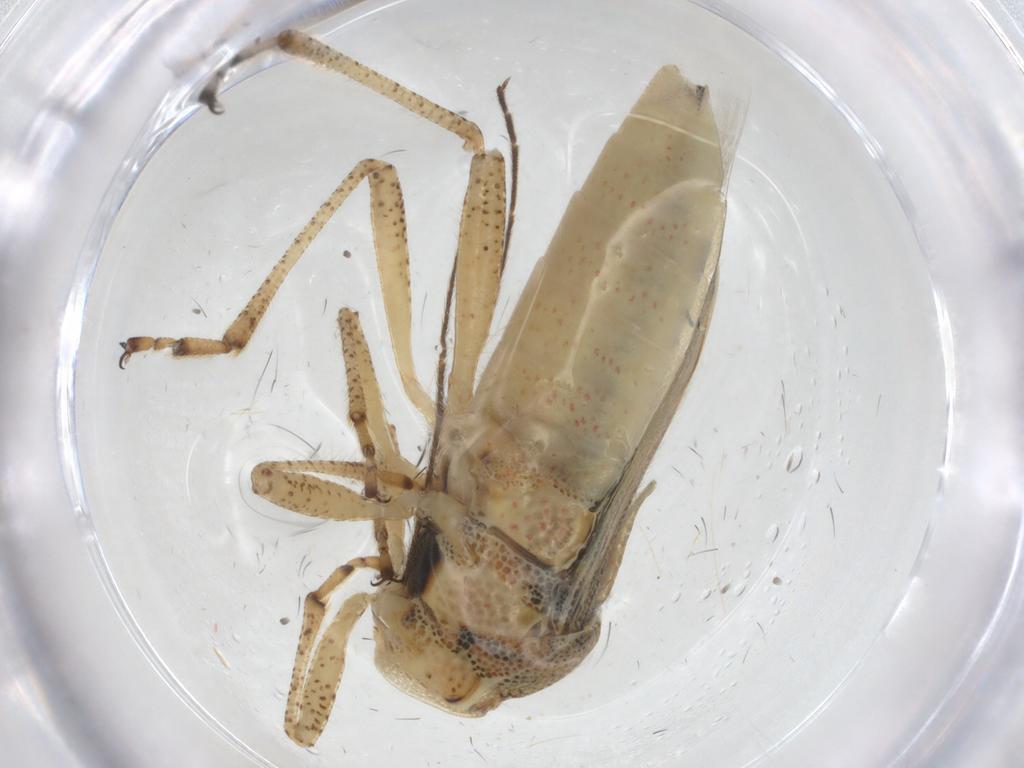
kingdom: Animalia
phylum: Arthropoda
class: Insecta
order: Hemiptera
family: Rhopalidae
